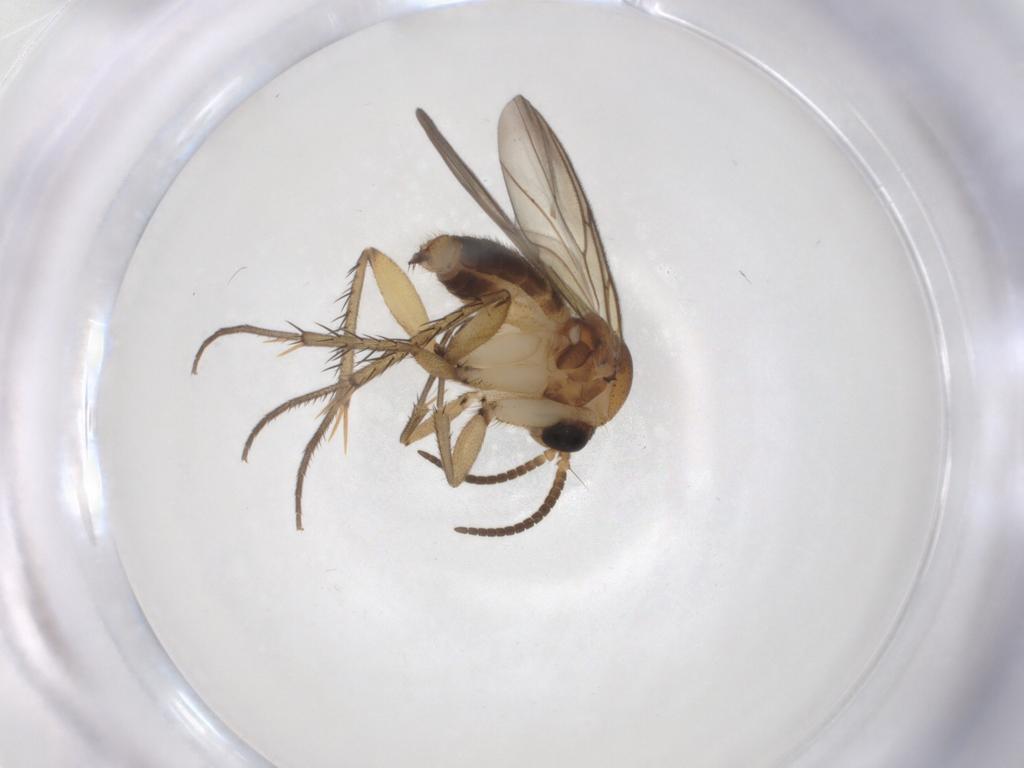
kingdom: Animalia
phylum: Arthropoda
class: Insecta
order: Diptera
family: Mycetophilidae
